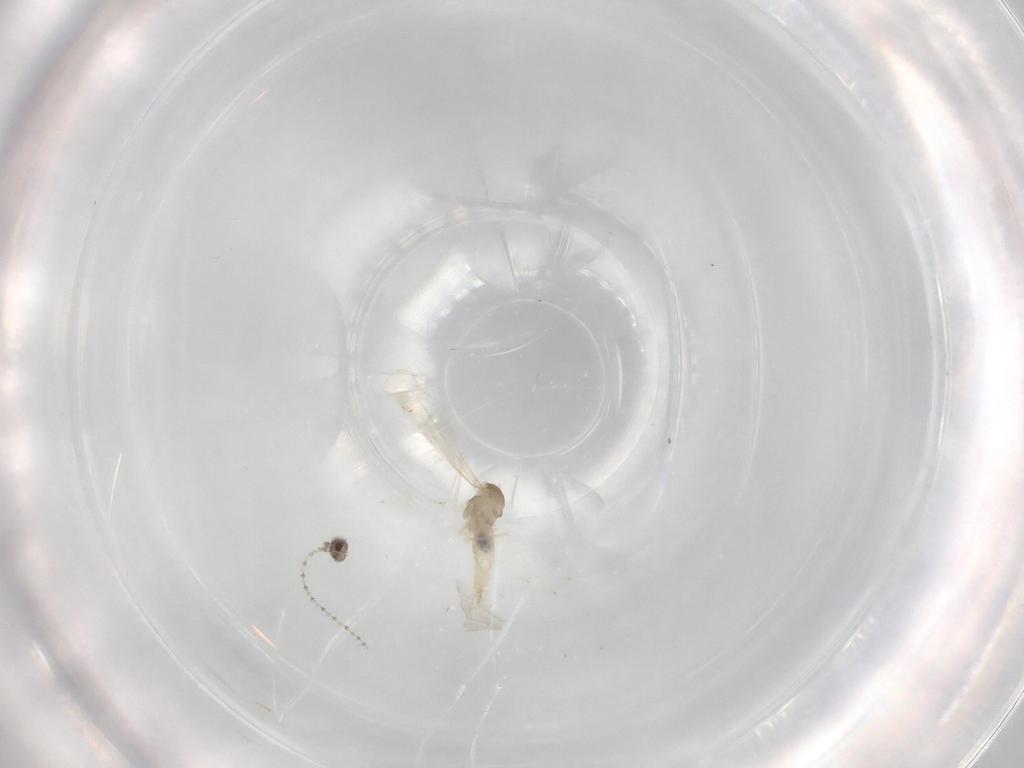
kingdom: Animalia
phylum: Arthropoda
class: Insecta
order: Diptera
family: Cecidomyiidae
